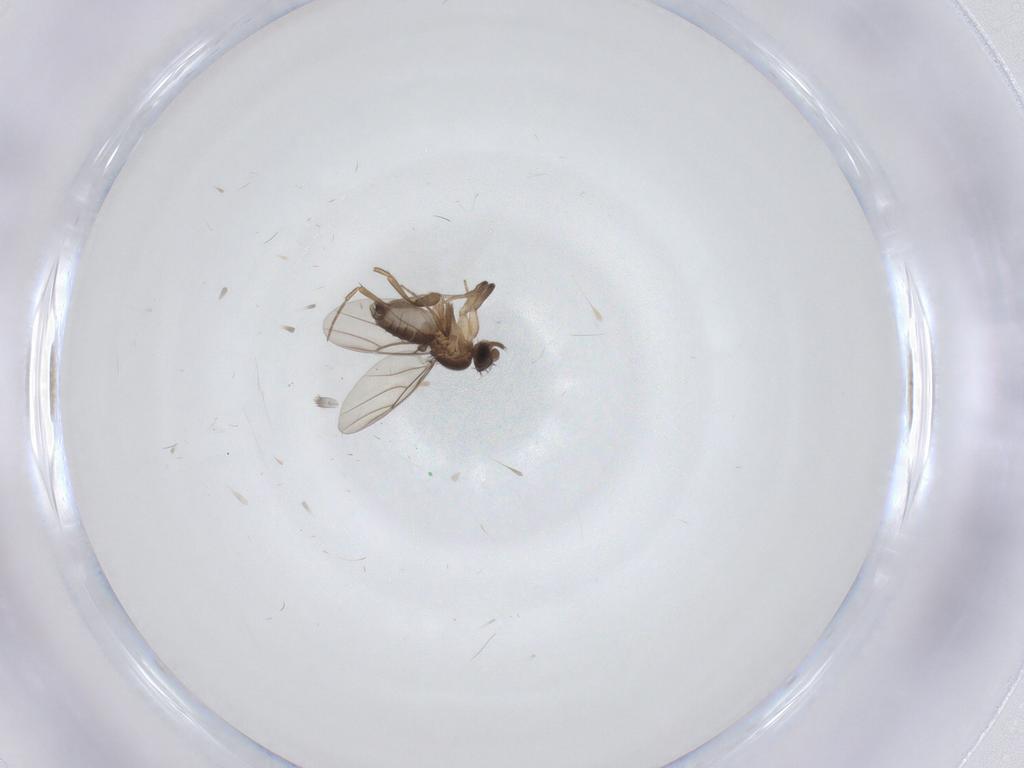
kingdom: Animalia
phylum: Arthropoda
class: Insecta
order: Diptera
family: Phoridae
